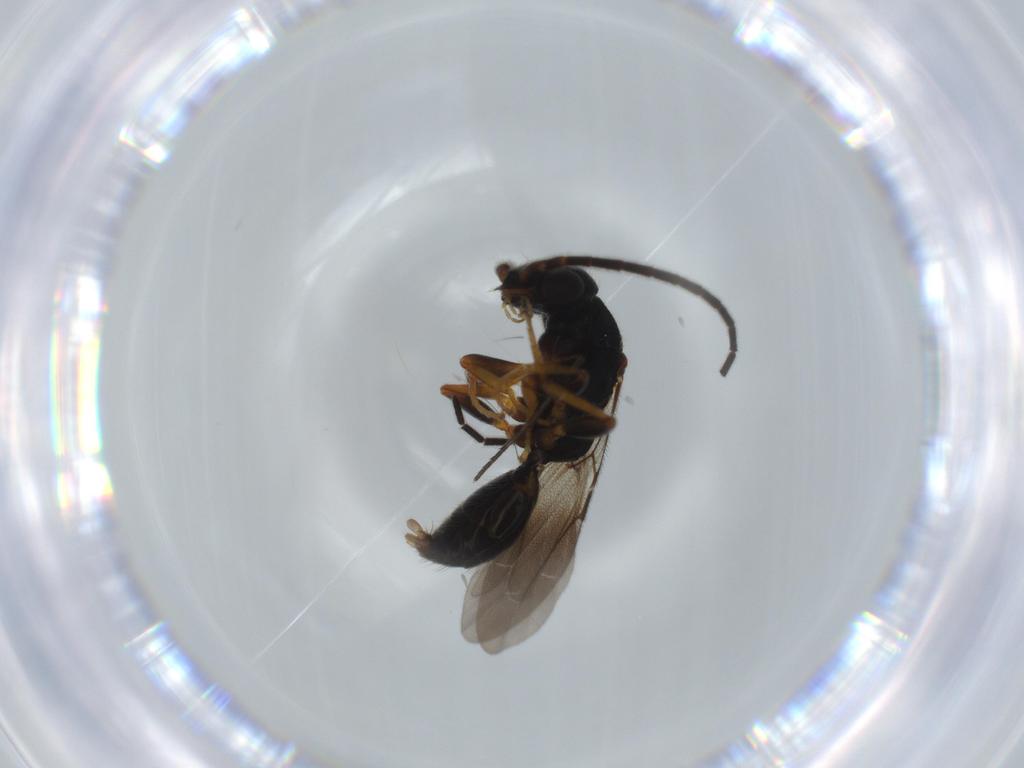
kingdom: Animalia
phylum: Arthropoda
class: Insecta
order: Hymenoptera
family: Bethylidae
